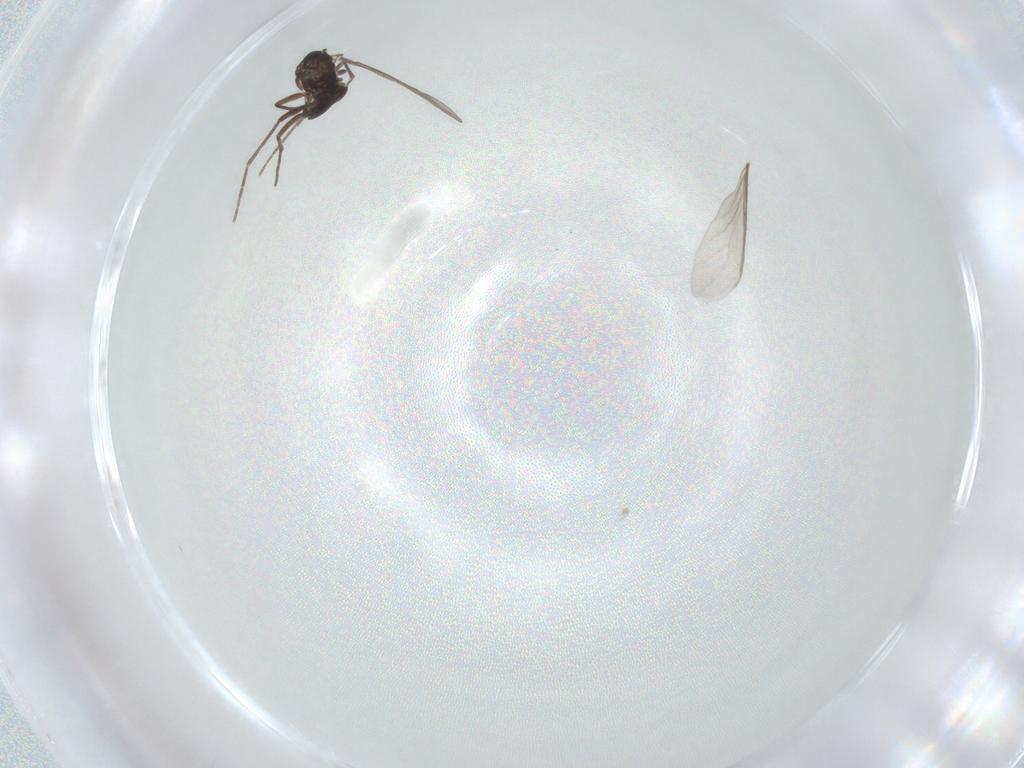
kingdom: Animalia
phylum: Arthropoda
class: Insecta
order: Diptera
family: Sciaridae
